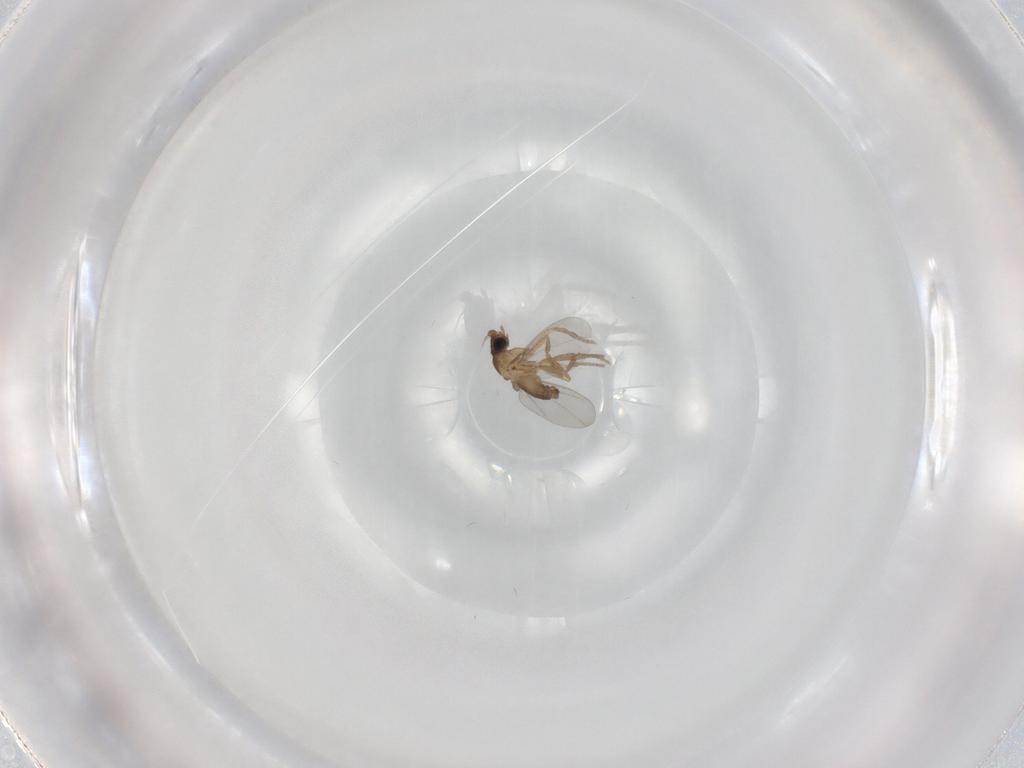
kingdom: Animalia
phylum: Arthropoda
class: Insecta
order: Diptera
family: Phoridae
